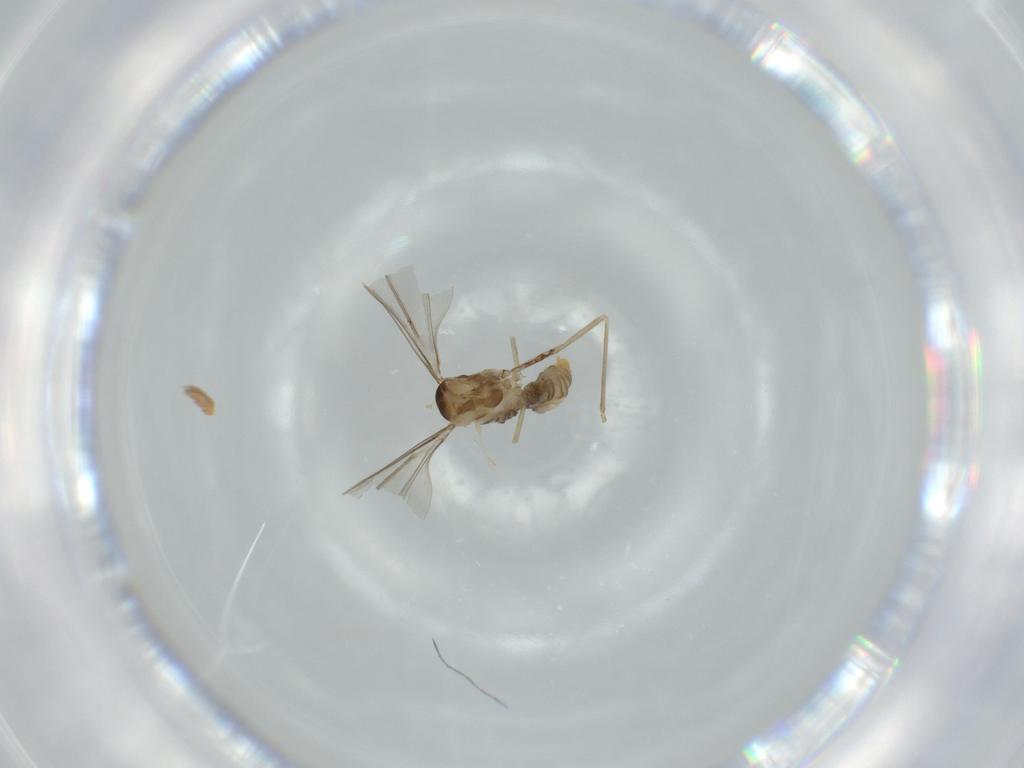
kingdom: Animalia
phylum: Arthropoda
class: Insecta
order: Diptera
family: Cecidomyiidae
